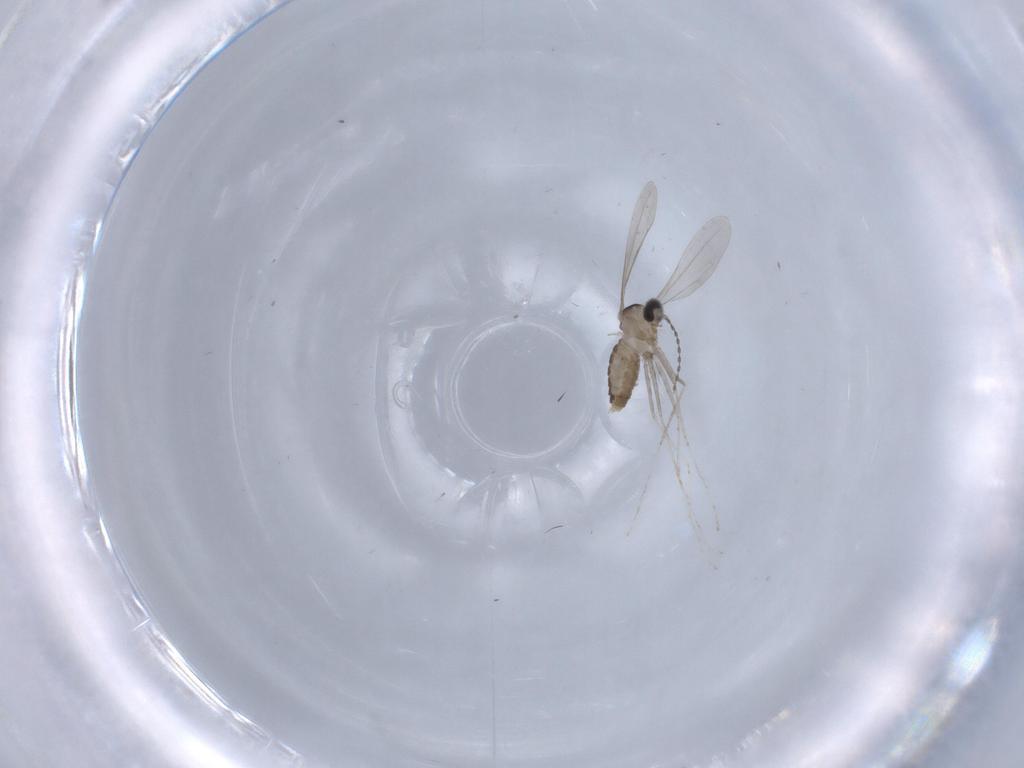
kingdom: Animalia
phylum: Arthropoda
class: Insecta
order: Diptera
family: Cecidomyiidae
